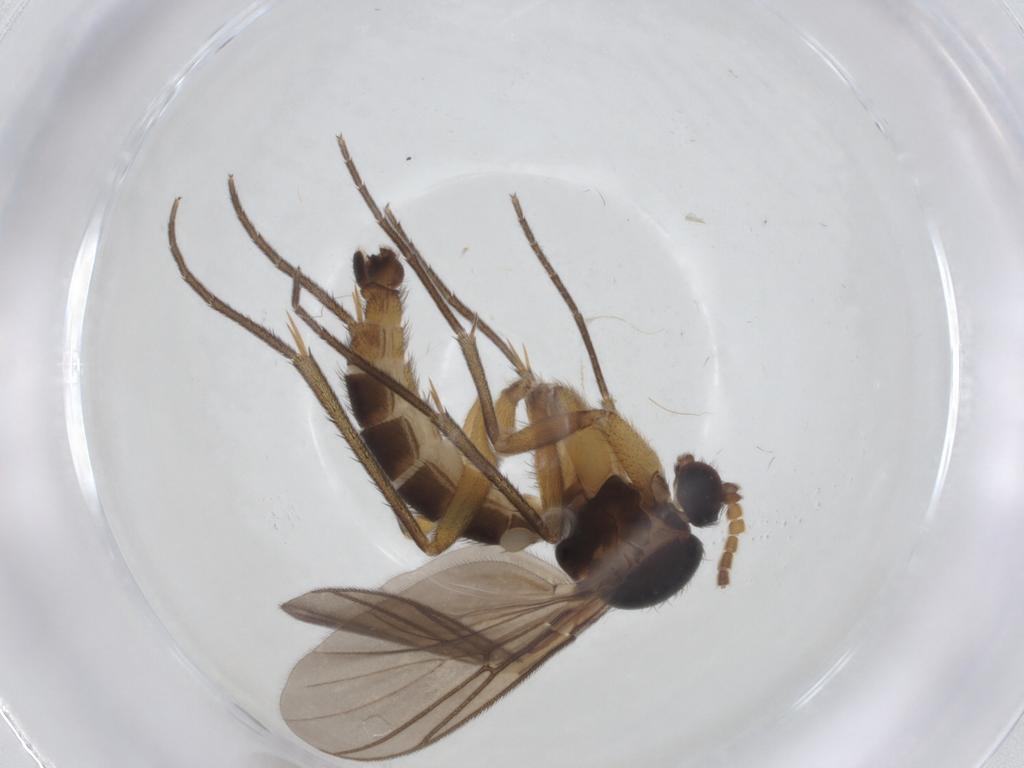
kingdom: Animalia
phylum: Arthropoda
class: Insecta
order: Diptera
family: Mycetophilidae
